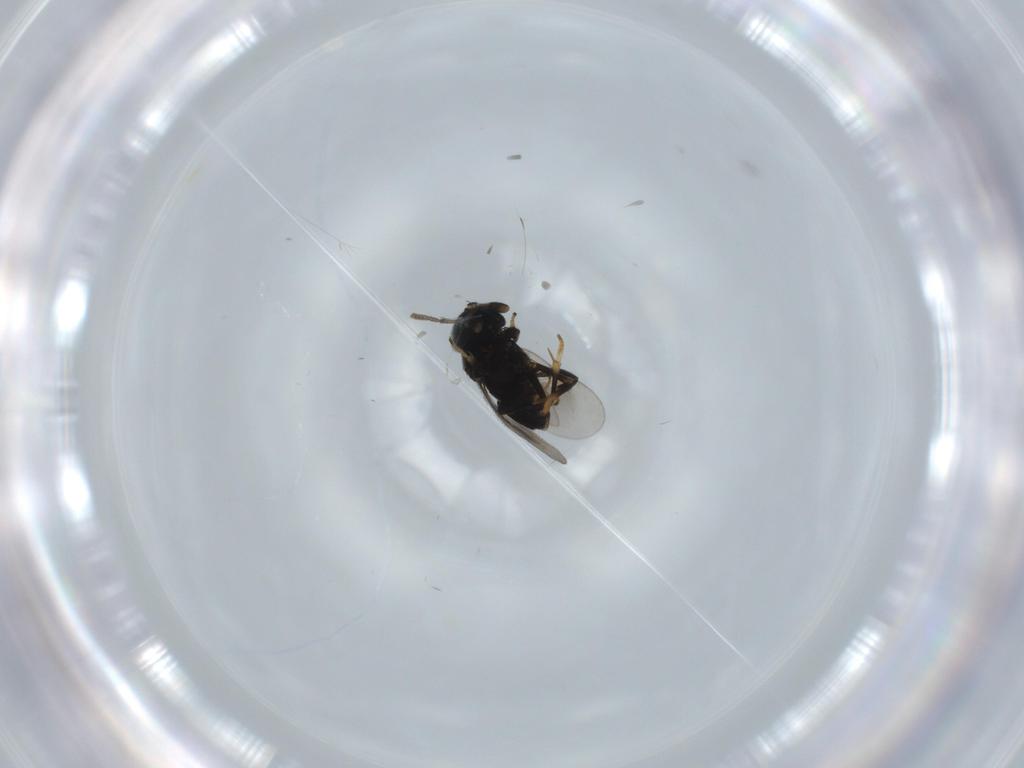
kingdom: Animalia
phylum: Arthropoda
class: Insecta
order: Diptera
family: Psychodidae
